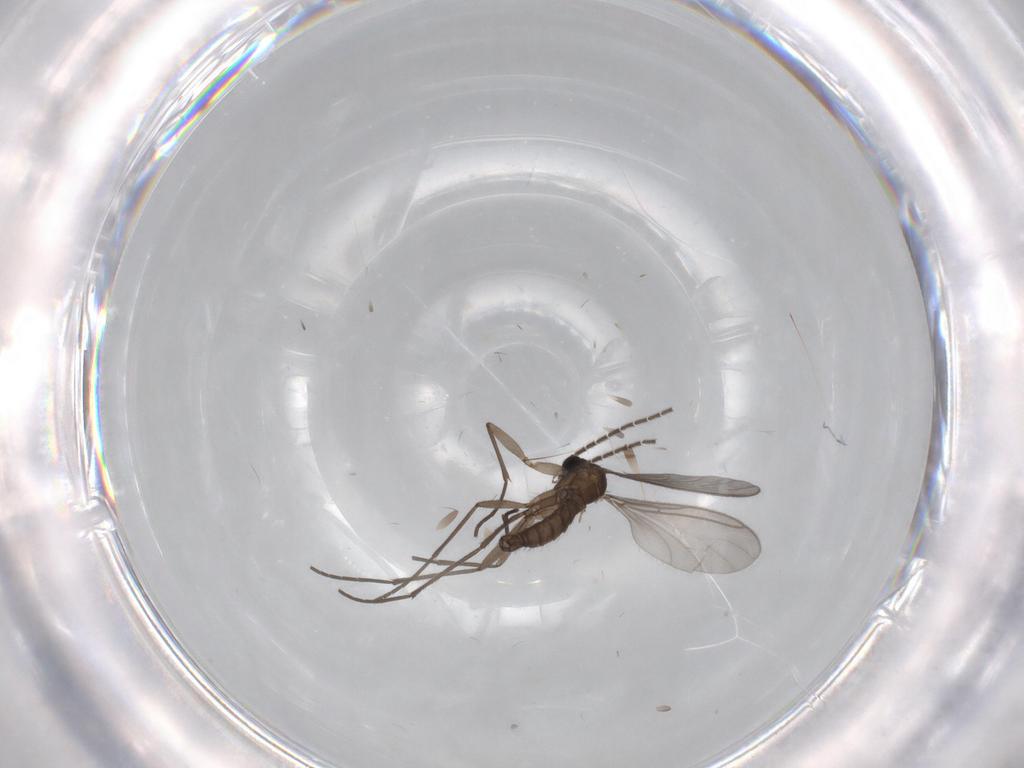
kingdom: Animalia
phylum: Arthropoda
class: Insecta
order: Diptera
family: Sciaridae
